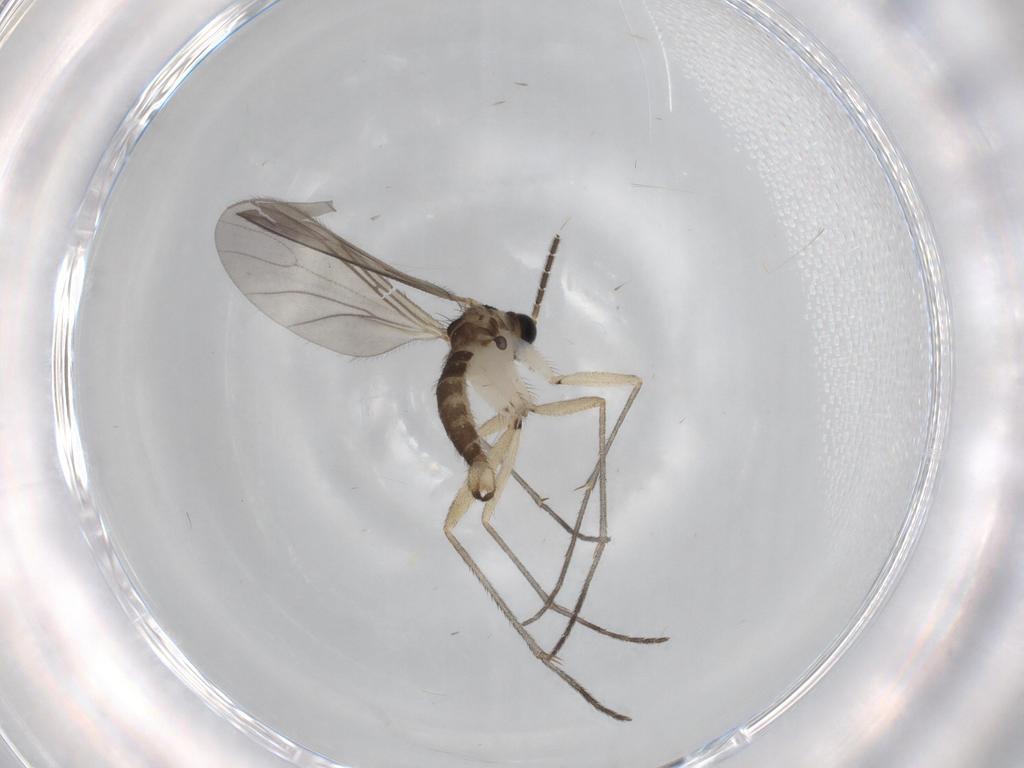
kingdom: Animalia
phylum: Arthropoda
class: Insecta
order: Diptera
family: Sciaridae
